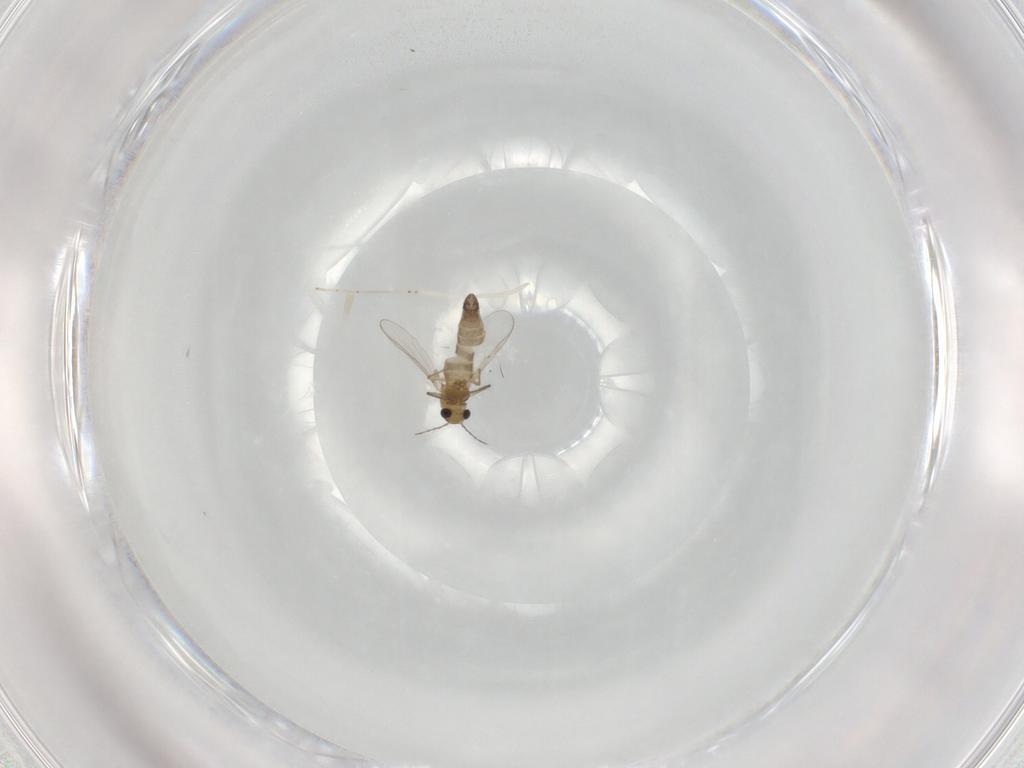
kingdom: Animalia
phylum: Arthropoda
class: Insecta
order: Diptera
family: Chironomidae
